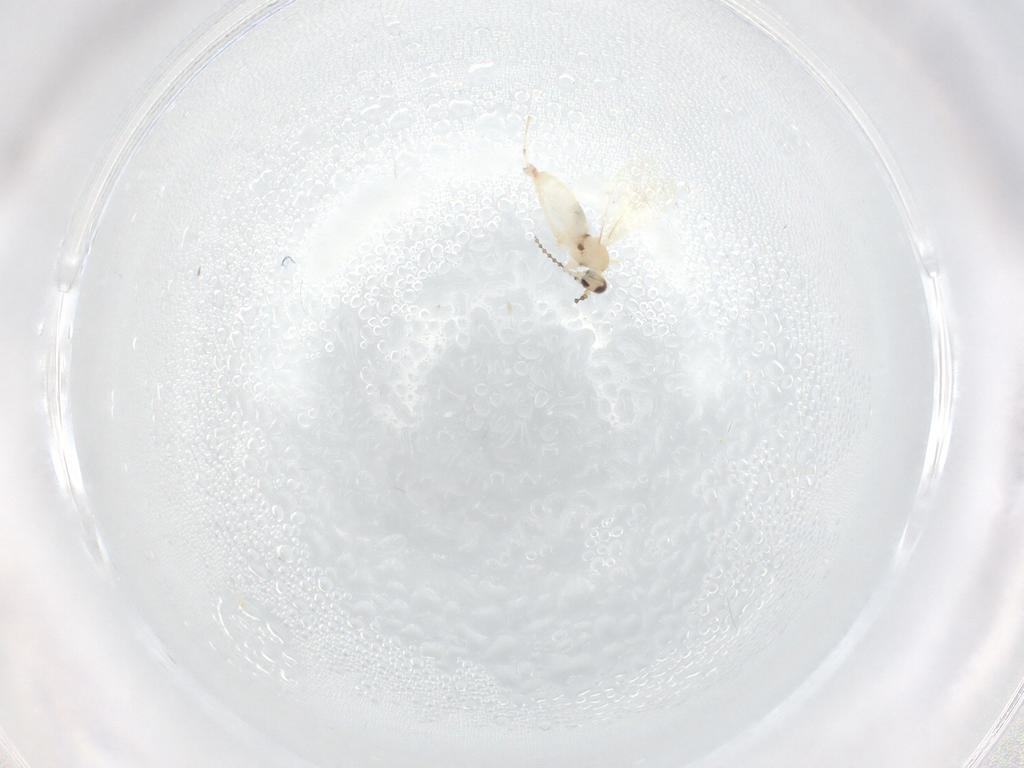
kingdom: Animalia
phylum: Arthropoda
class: Insecta
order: Diptera
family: Cecidomyiidae
